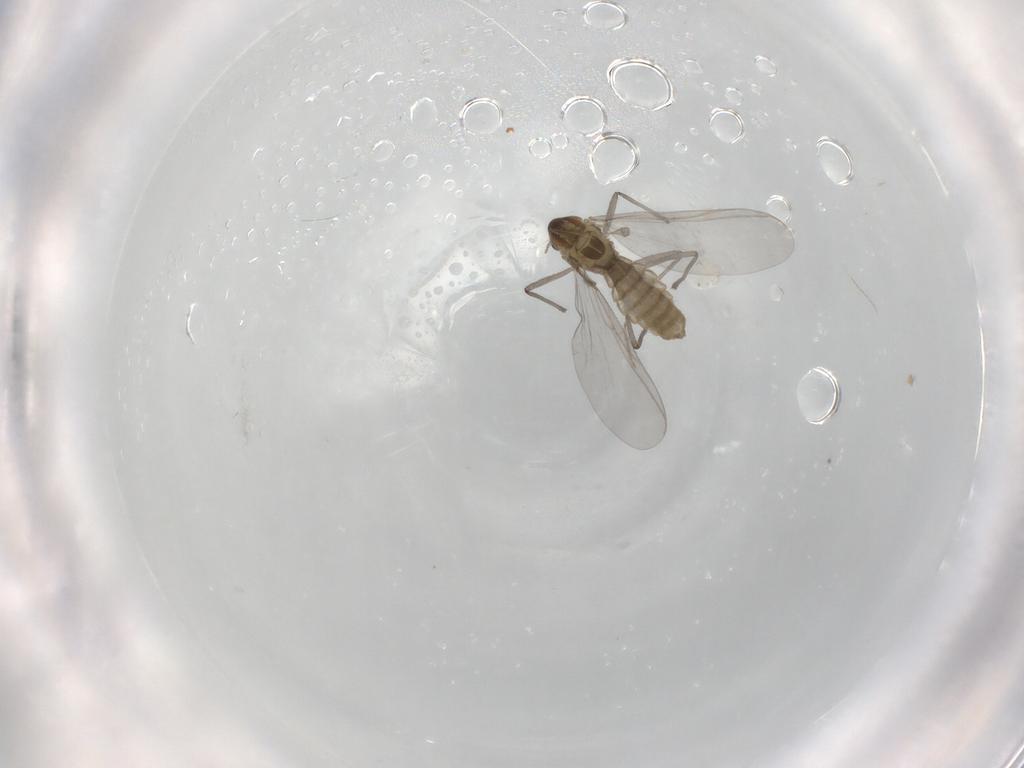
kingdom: Animalia
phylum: Arthropoda
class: Insecta
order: Diptera
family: Chironomidae
